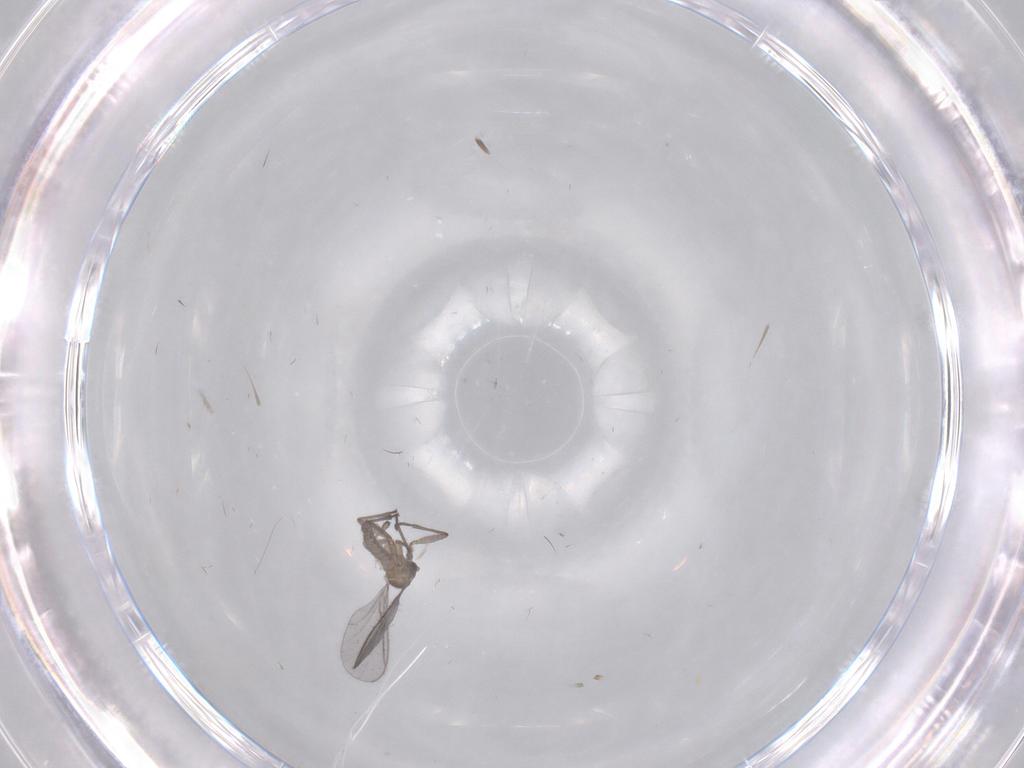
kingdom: Animalia
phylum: Arthropoda
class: Insecta
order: Diptera
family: Sciaridae
